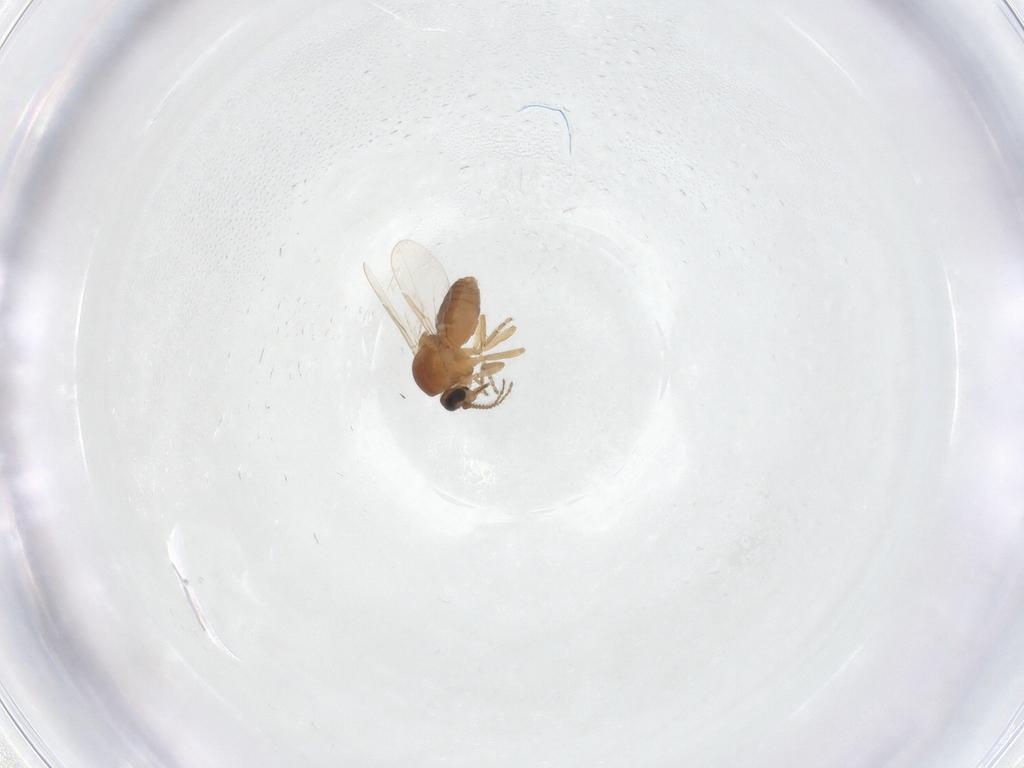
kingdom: Animalia
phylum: Arthropoda
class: Insecta
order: Diptera
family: Ceratopogonidae
